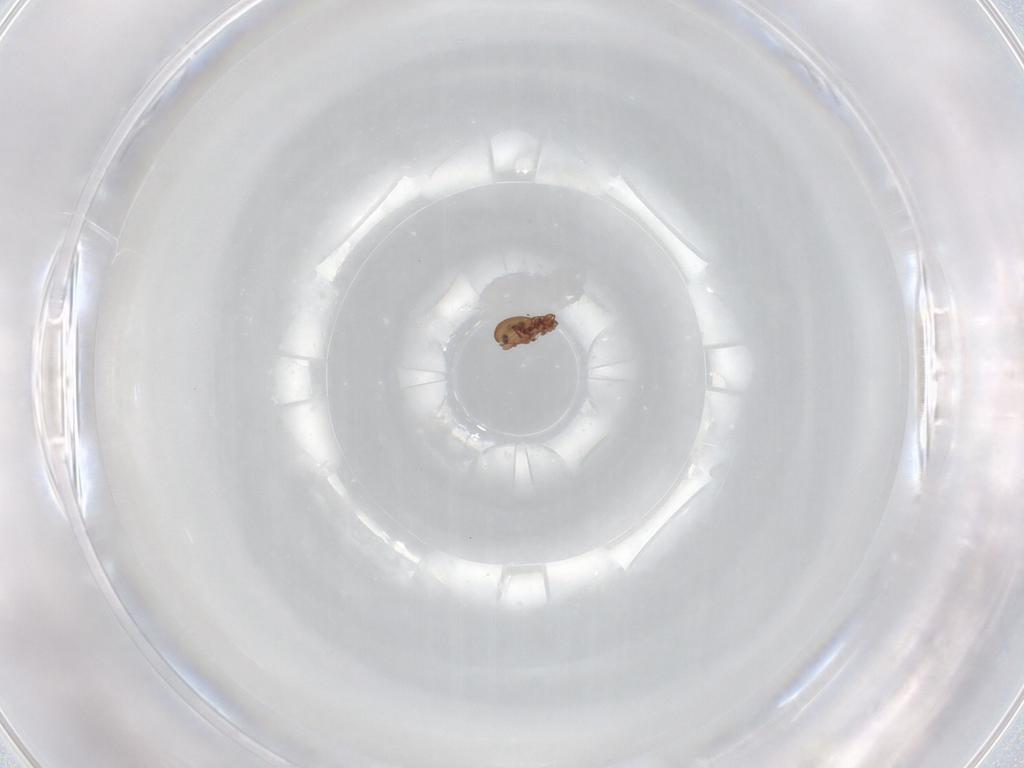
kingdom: Animalia
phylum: Arthropoda
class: Arachnida
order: Sarcoptiformes
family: Eremaeidae
